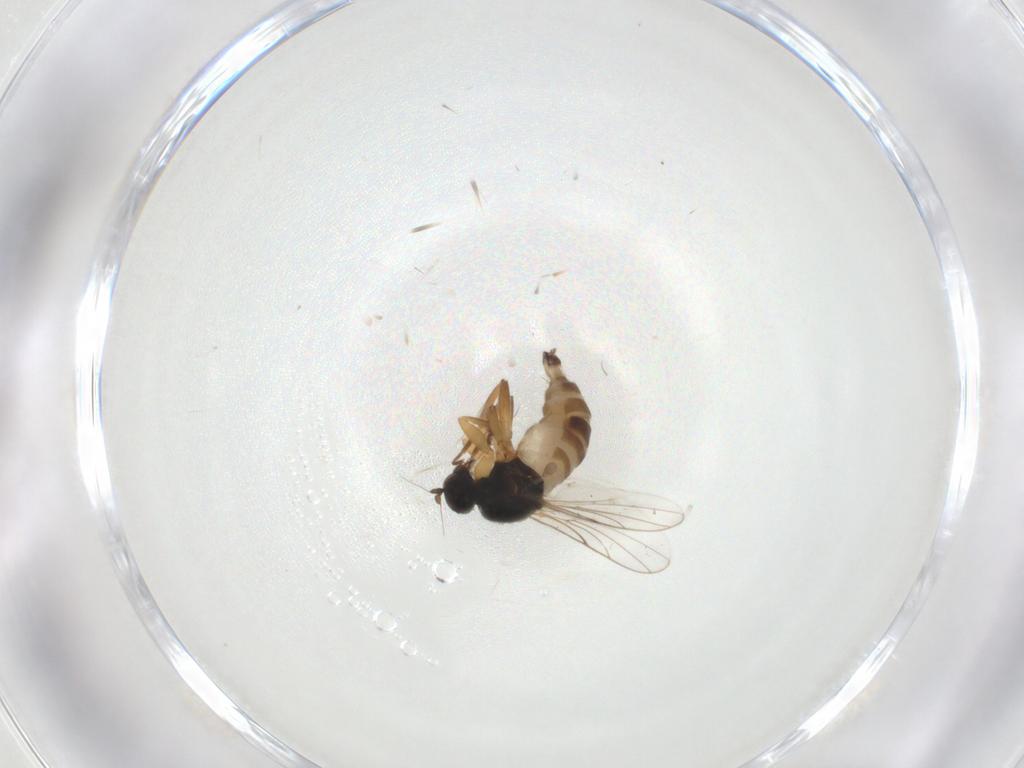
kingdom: Animalia
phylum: Arthropoda
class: Insecta
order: Diptera
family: Hybotidae
